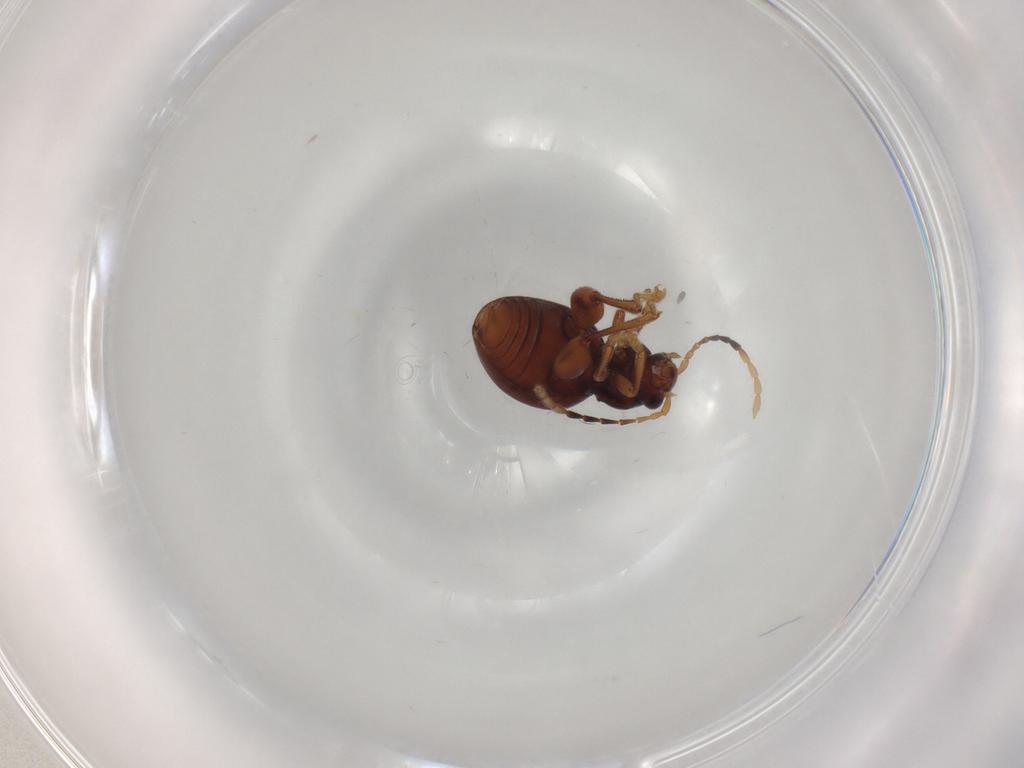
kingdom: Animalia
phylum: Arthropoda
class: Insecta
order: Coleoptera
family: Chrysomelidae
